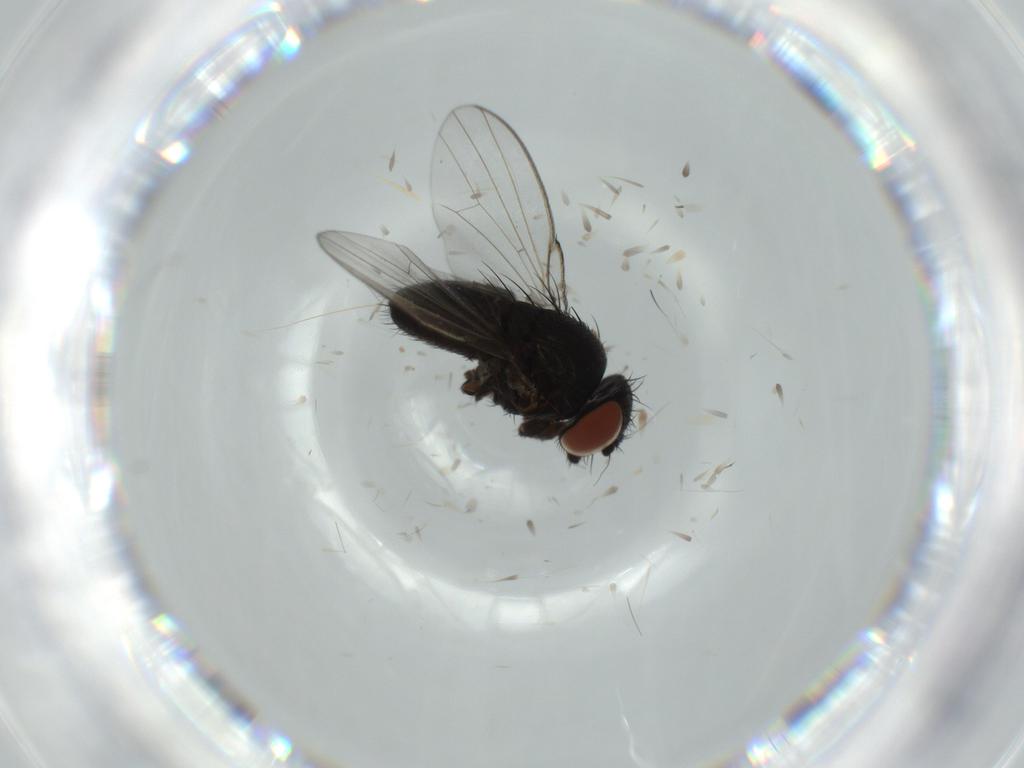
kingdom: Animalia
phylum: Arthropoda
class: Insecta
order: Diptera
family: Milichiidae
